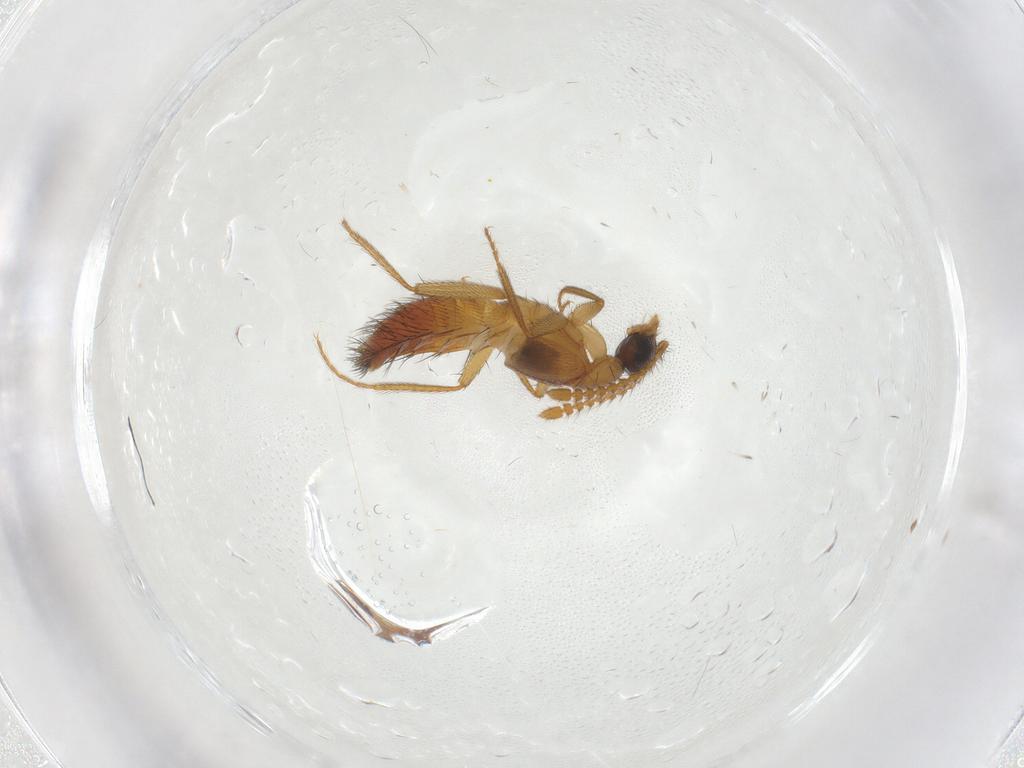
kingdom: Animalia
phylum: Arthropoda
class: Insecta
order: Coleoptera
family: Staphylinidae
